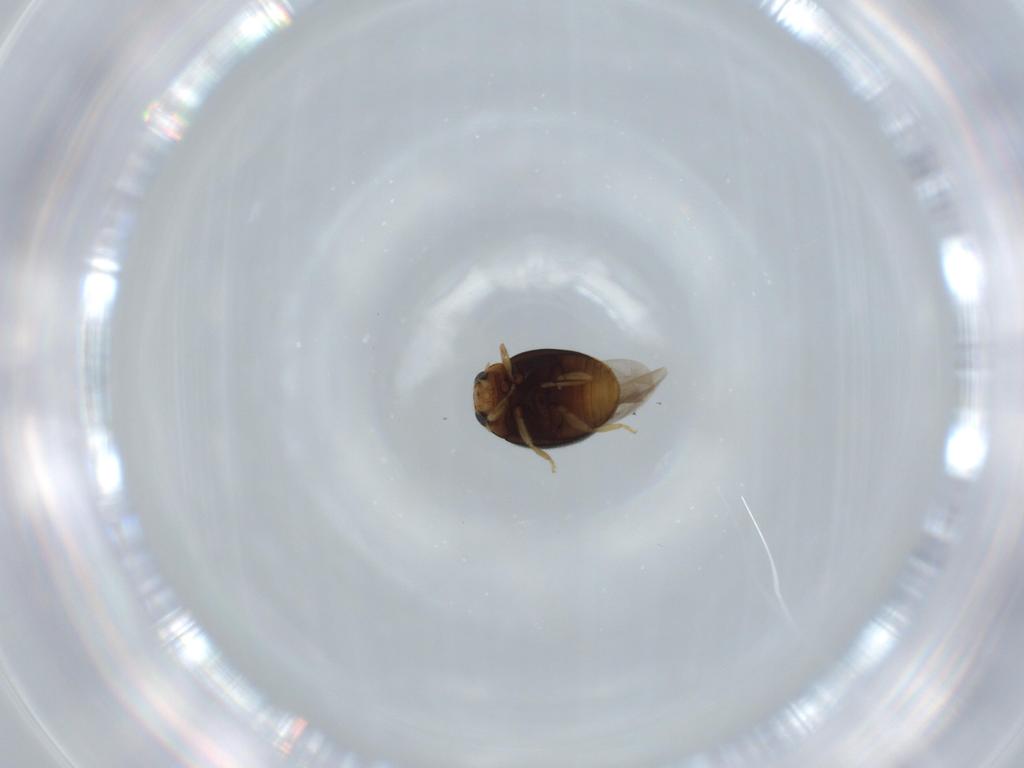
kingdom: Animalia
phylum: Arthropoda
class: Insecta
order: Coleoptera
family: Coccinellidae
